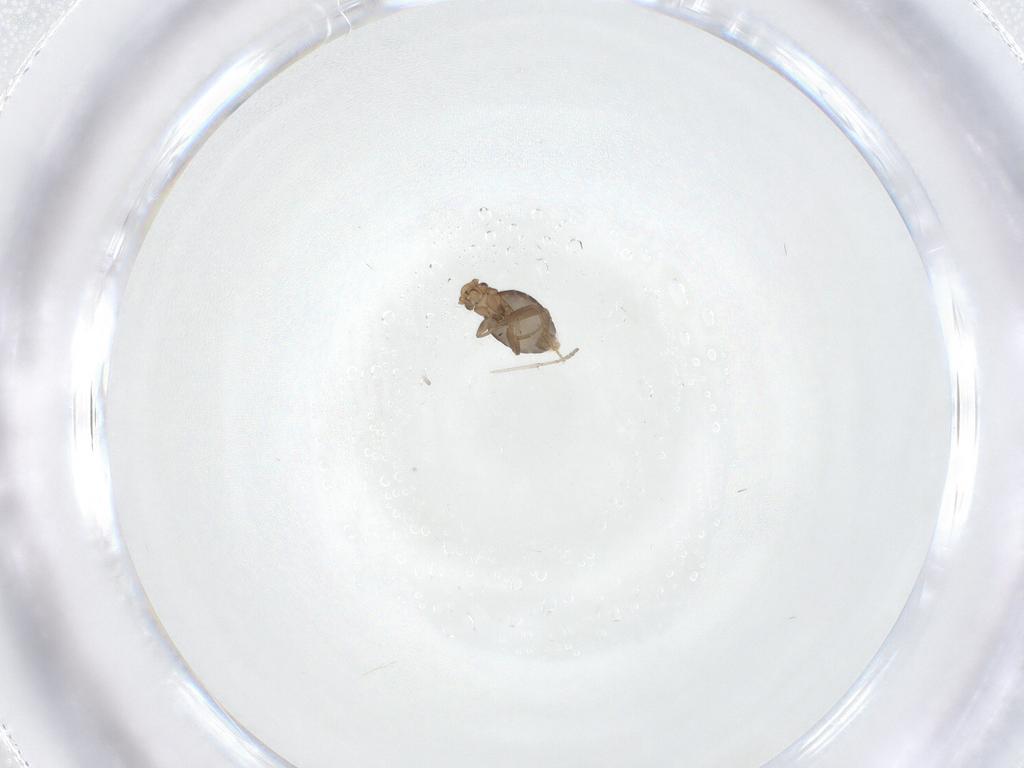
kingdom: Animalia
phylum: Arthropoda
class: Insecta
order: Diptera
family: Phoridae
